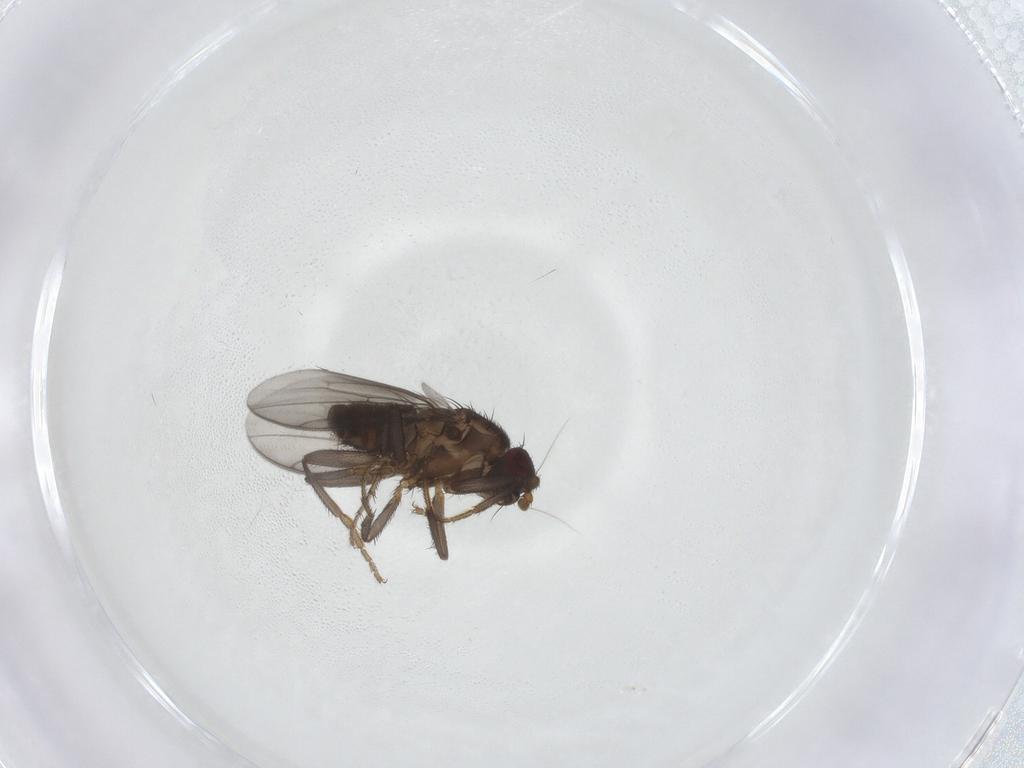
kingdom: Animalia
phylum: Arthropoda
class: Insecta
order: Diptera
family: Sphaeroceridae
